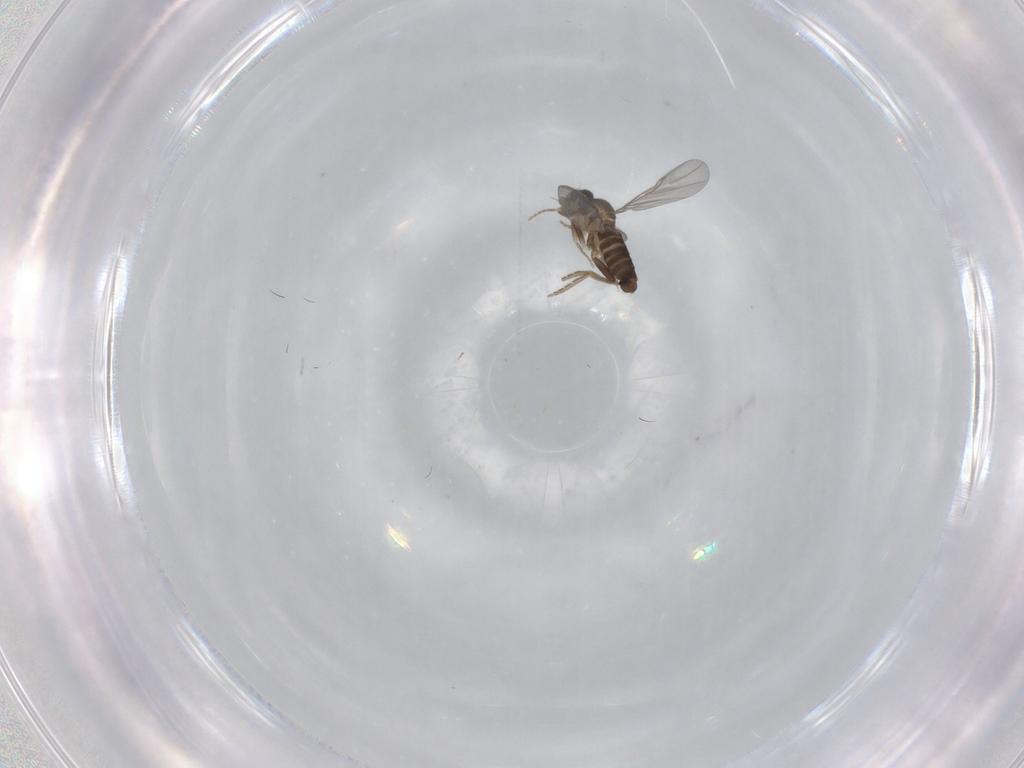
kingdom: Animalia
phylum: Arthropoda
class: Insecta
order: Diptera
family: Sciaridae
